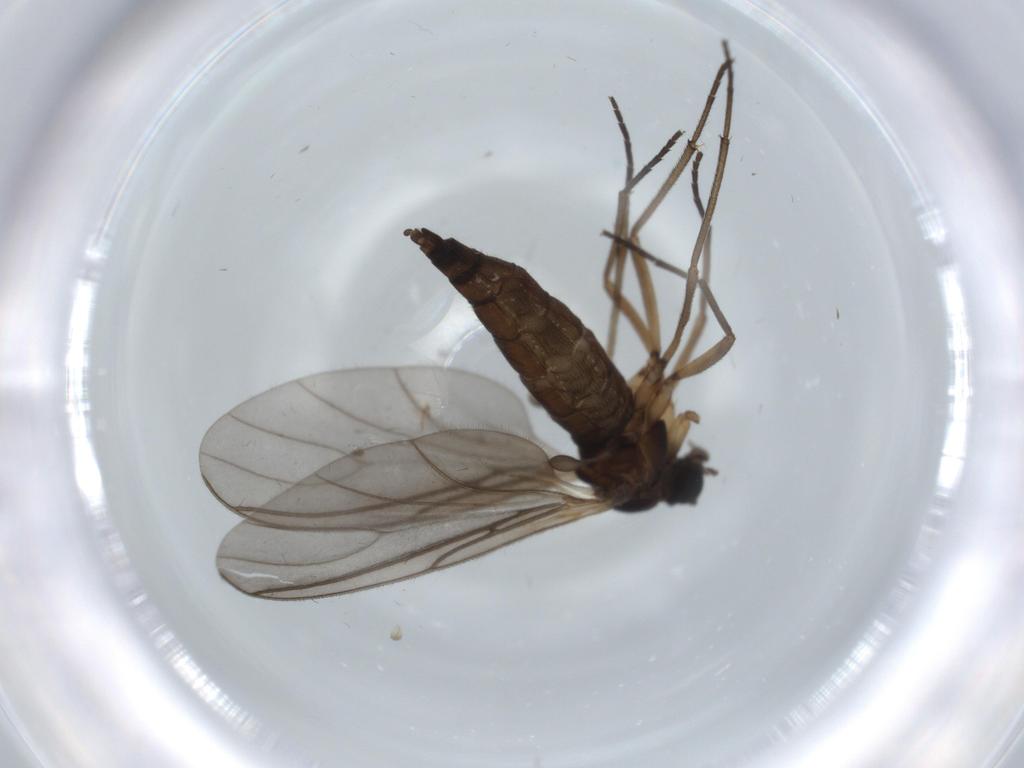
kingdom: Animalia
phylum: Arthropoda
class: Insecta
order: Diptera
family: Sciaridae
